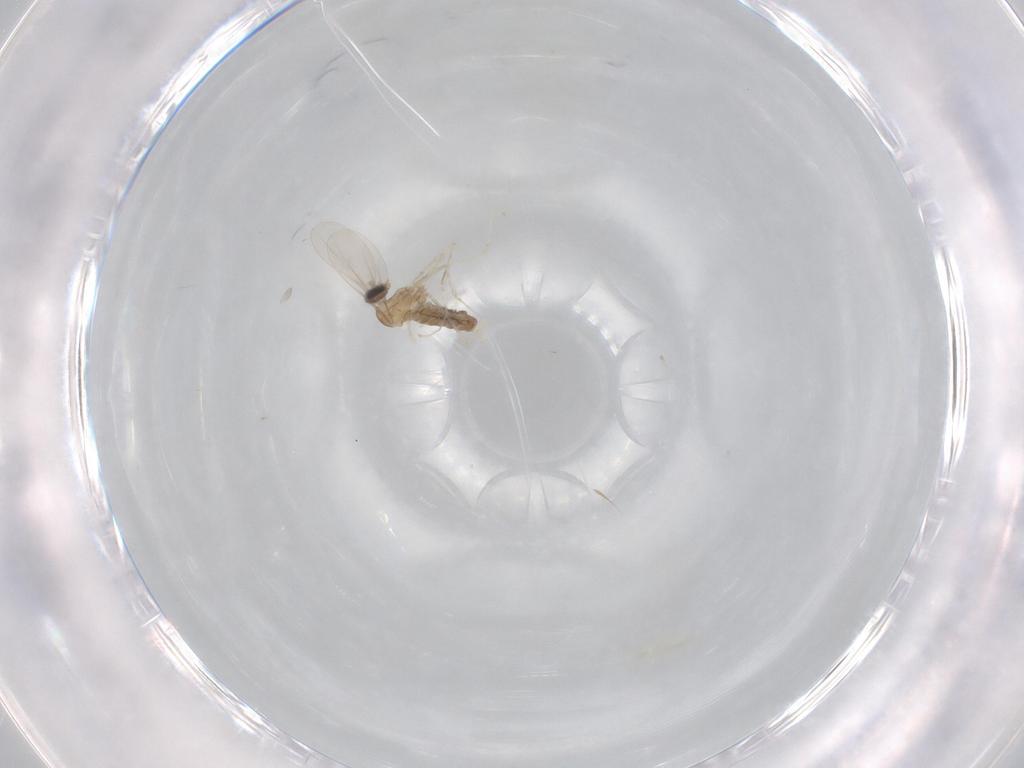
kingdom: Animalia
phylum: Arthropoda
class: Insecta
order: Diptera
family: Cecidomyiidae
